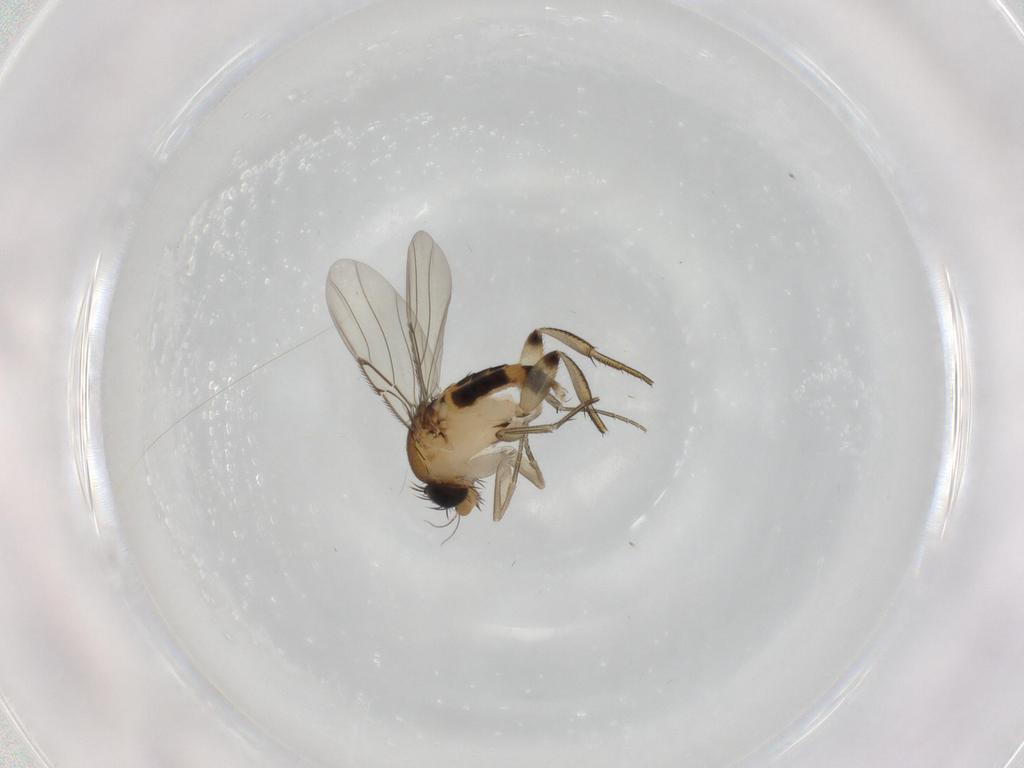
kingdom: Animalia
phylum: Arthropoda
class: Insecta
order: Diptera
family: Phoridae
